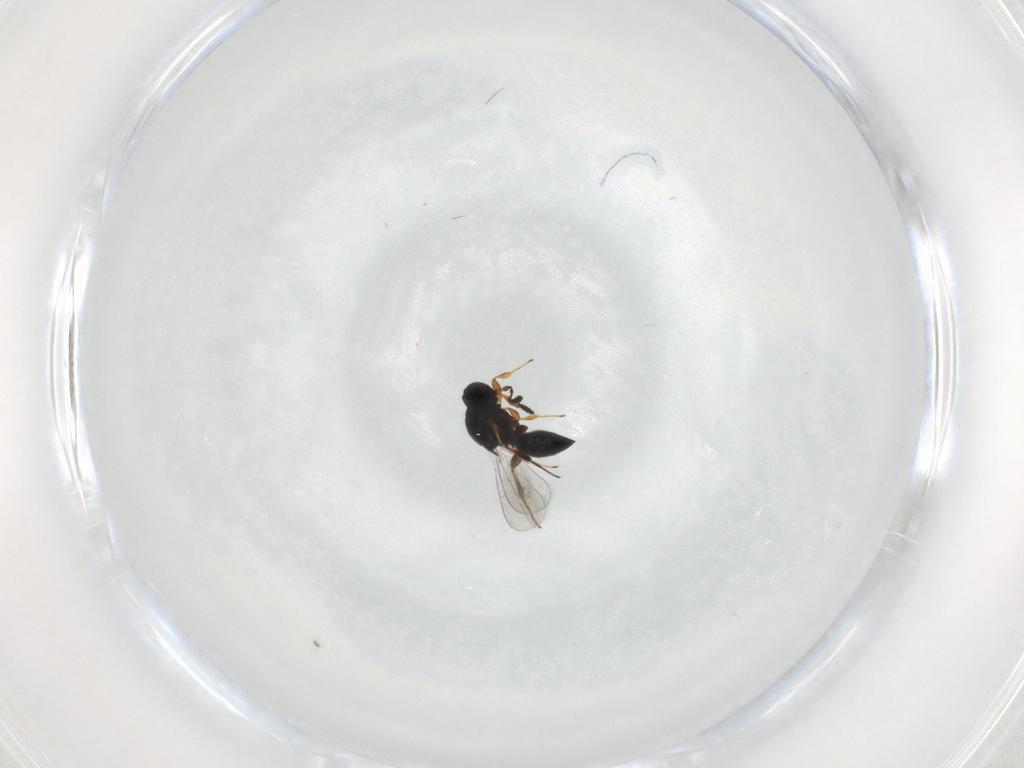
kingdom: Animalia
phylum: Arthropoda
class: Insecta
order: Hymenoptera
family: Platygastridae
